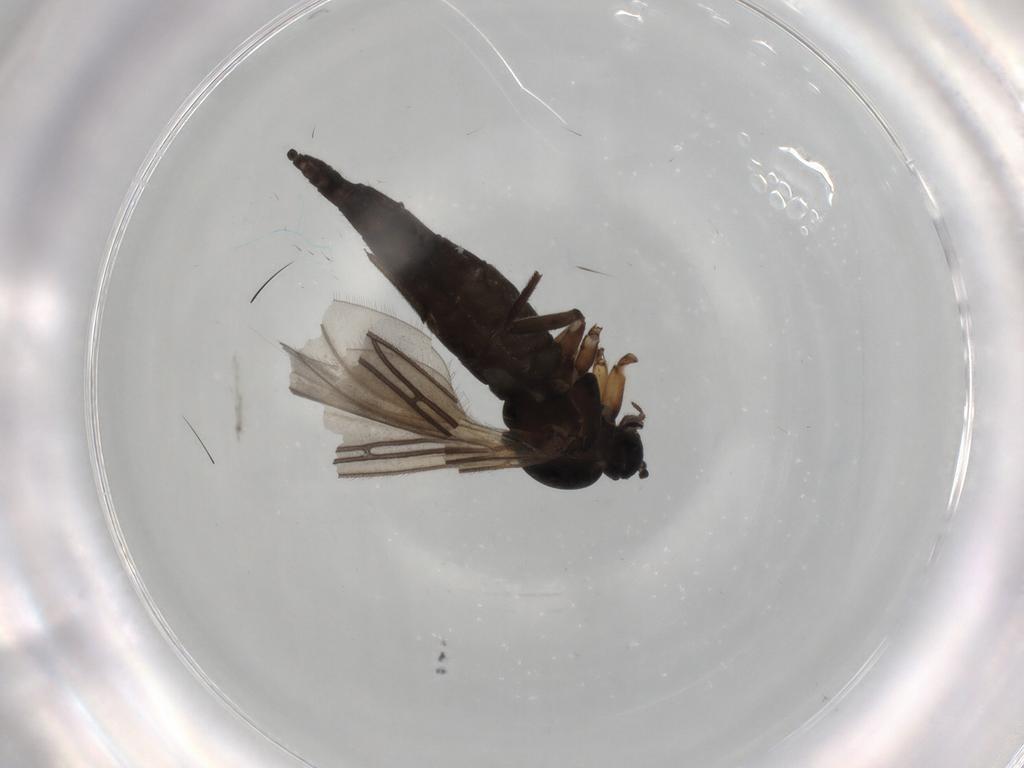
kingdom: Animalia
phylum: Arthropoda
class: Insecta
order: Diptera
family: Sciaridae
